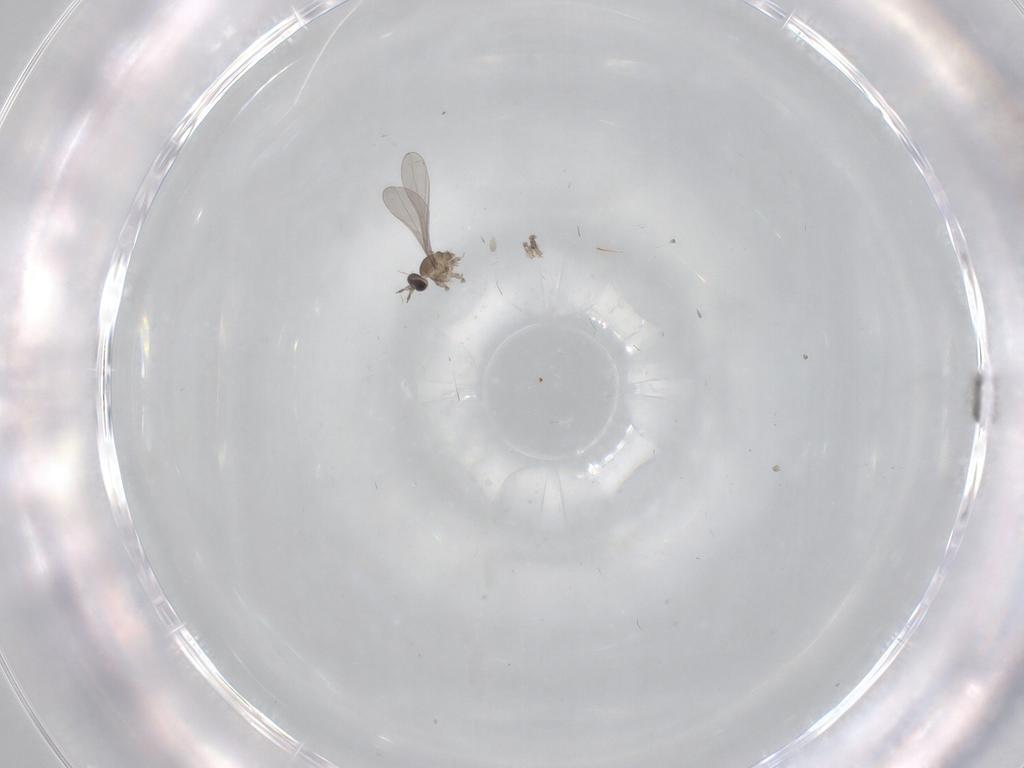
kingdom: Animalia
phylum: Arthropoda
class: Insecta
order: Diptera
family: Cecidomyiidae
